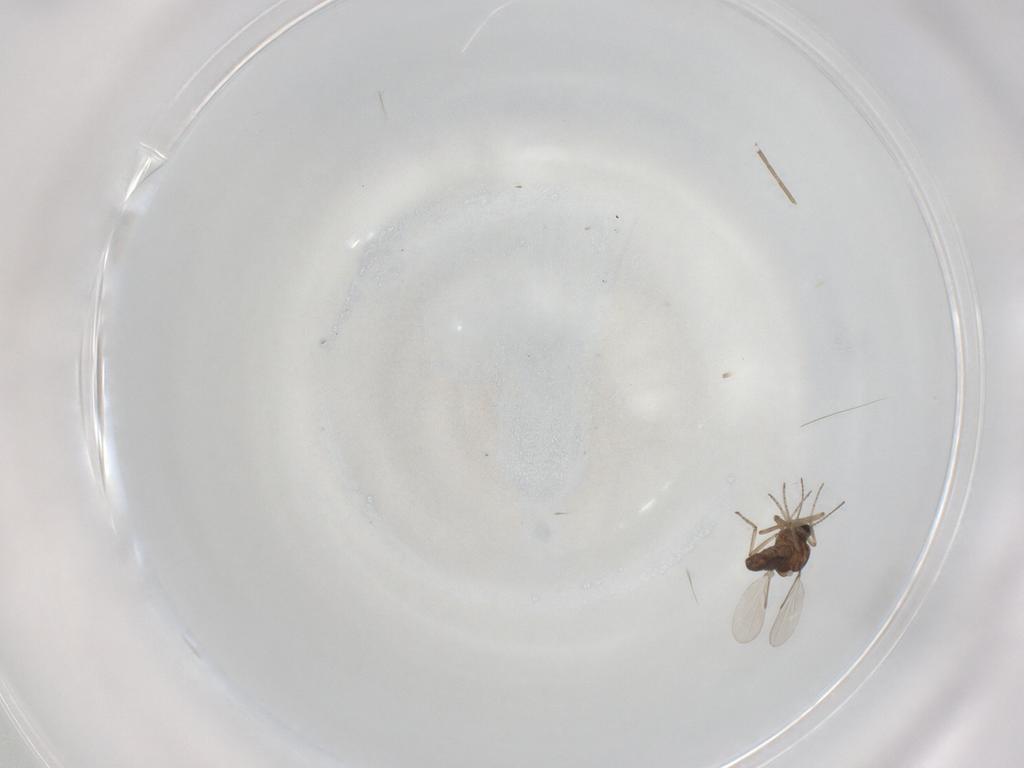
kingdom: Animalia
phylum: Arthropoda
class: Insecta
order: Diptera
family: Ceratopogonidae
